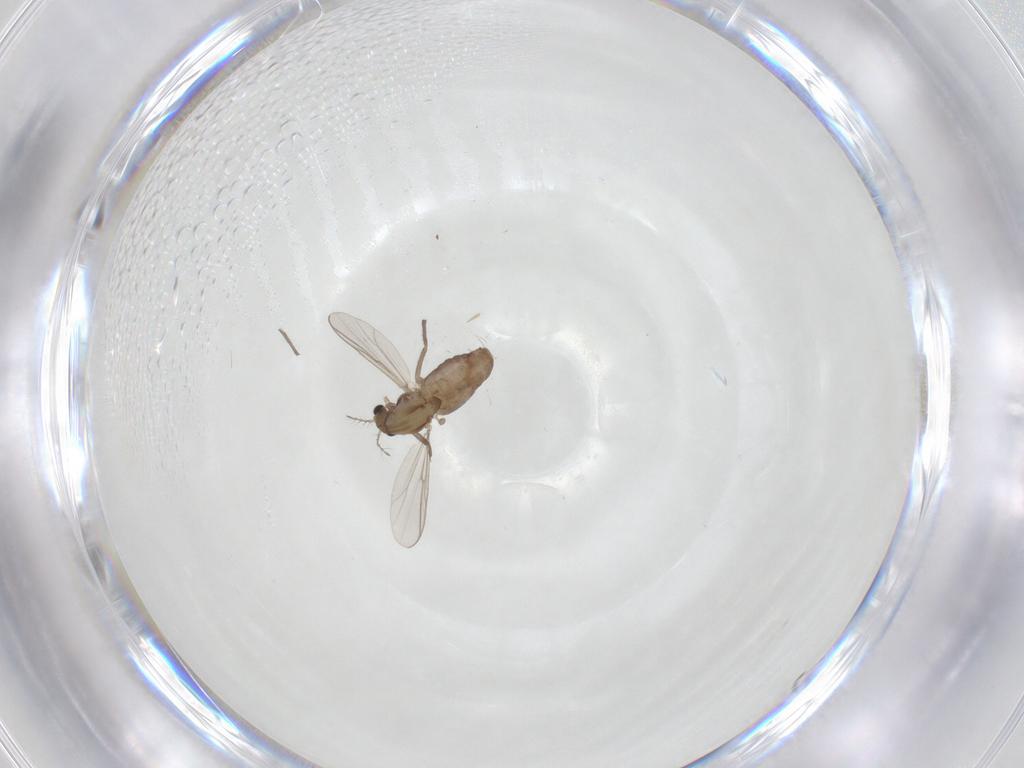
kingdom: Animalia
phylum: Arthropoda
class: Insecta
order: Diptera
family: Chironomidae
